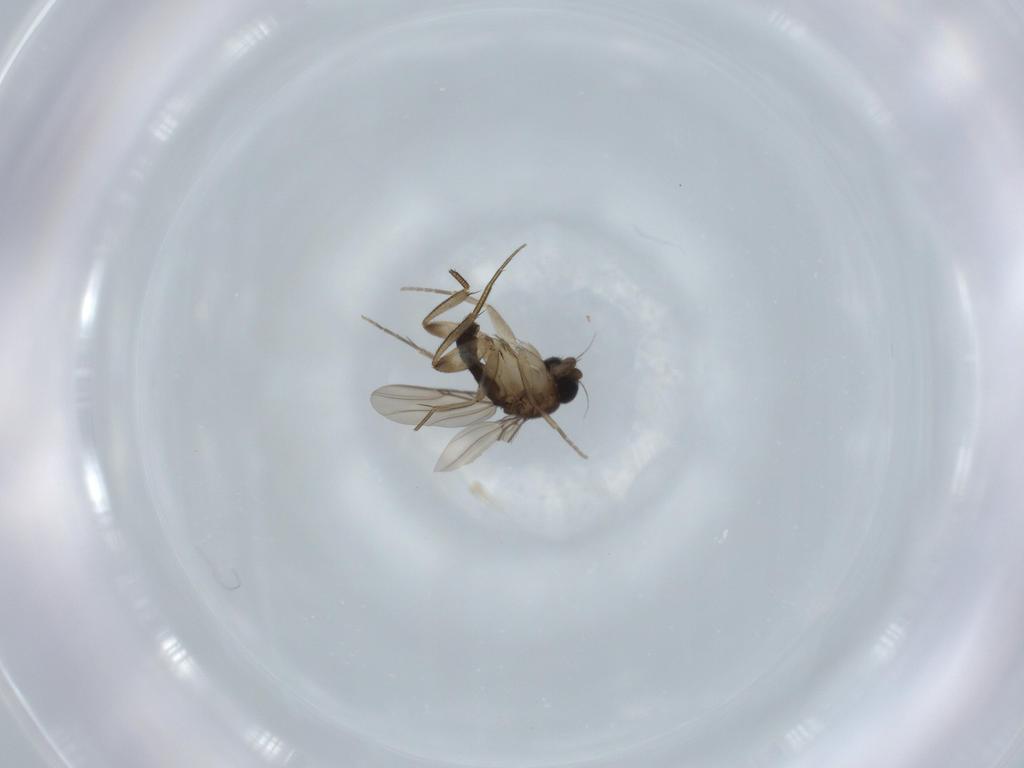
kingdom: Animalia
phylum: Arthropoda
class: Insecta
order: Diptera
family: Phoridae
